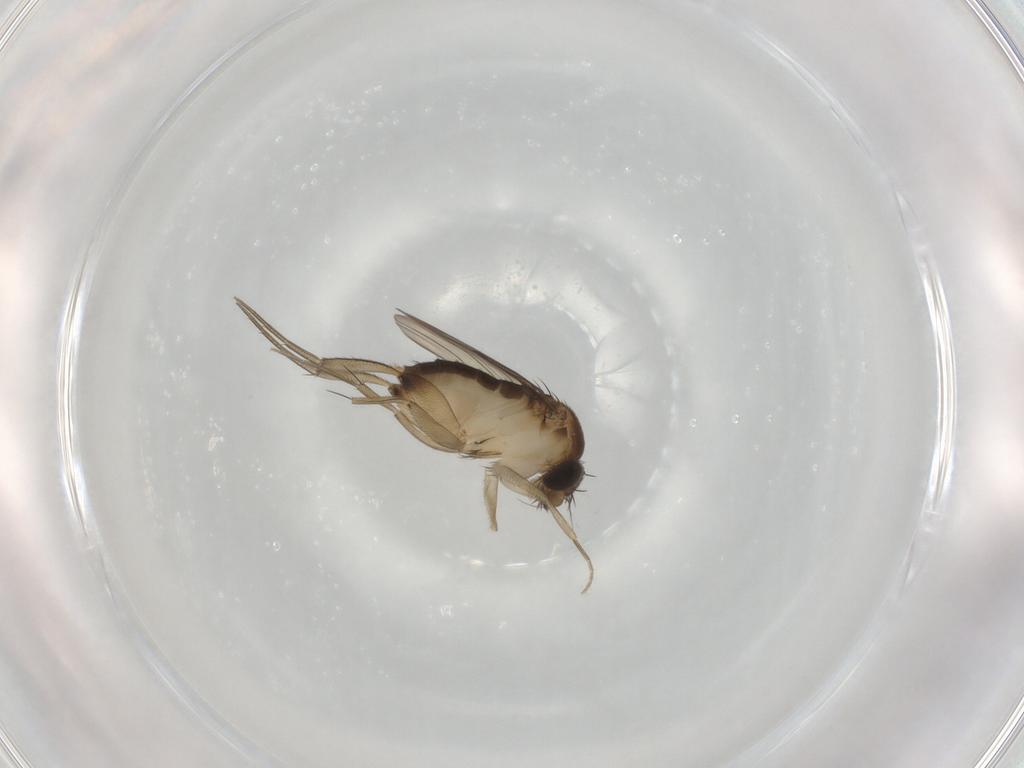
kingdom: Animalia
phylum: Arthropoda
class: Insecta
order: Diptera
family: Phoridae
